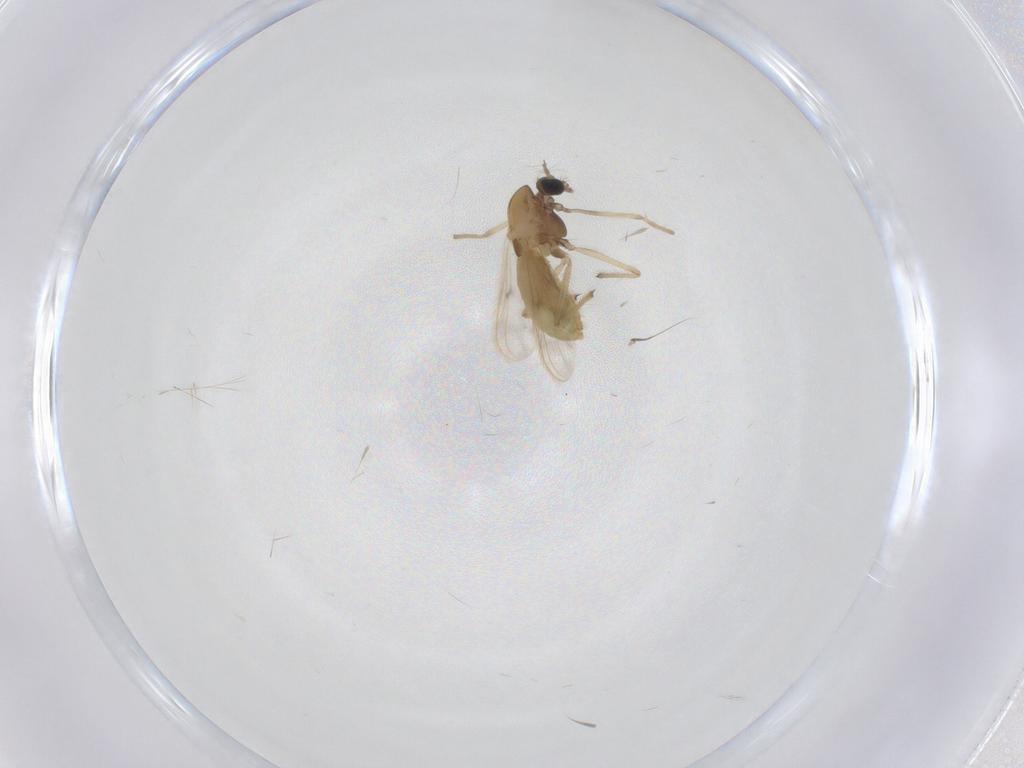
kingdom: Animalia
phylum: Arthropoda
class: Insecta
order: Diptera
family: Chironomidae
